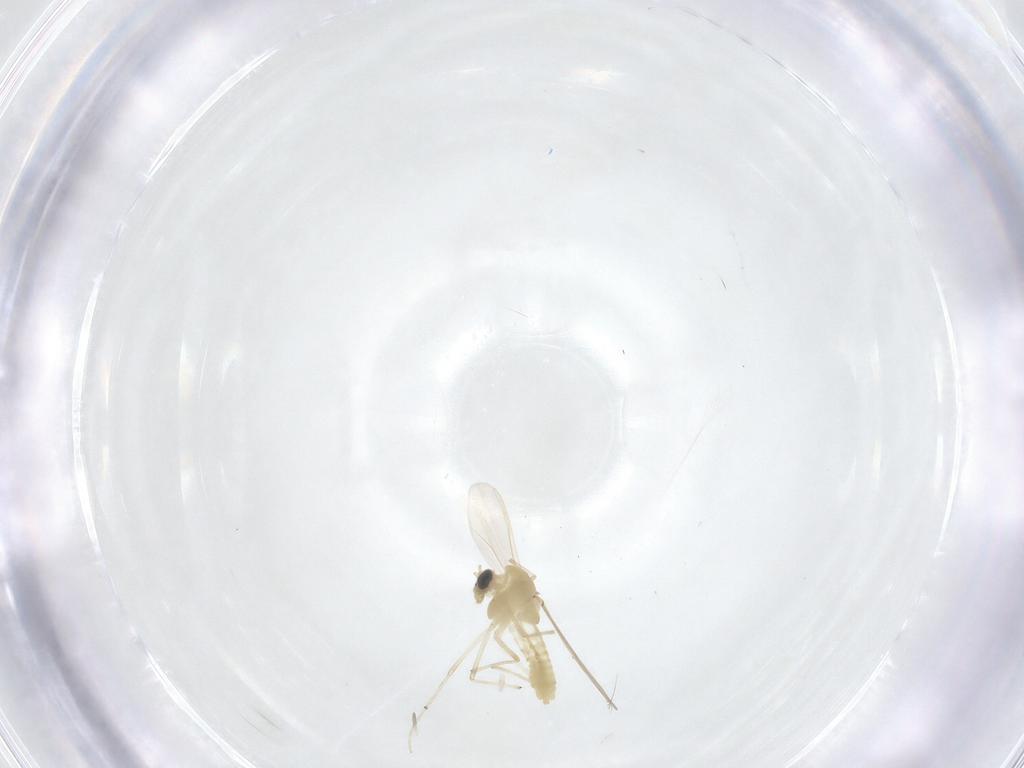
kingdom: Animalia
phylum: Arthropoda
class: Insecta
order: Diptera
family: Chironomidae
